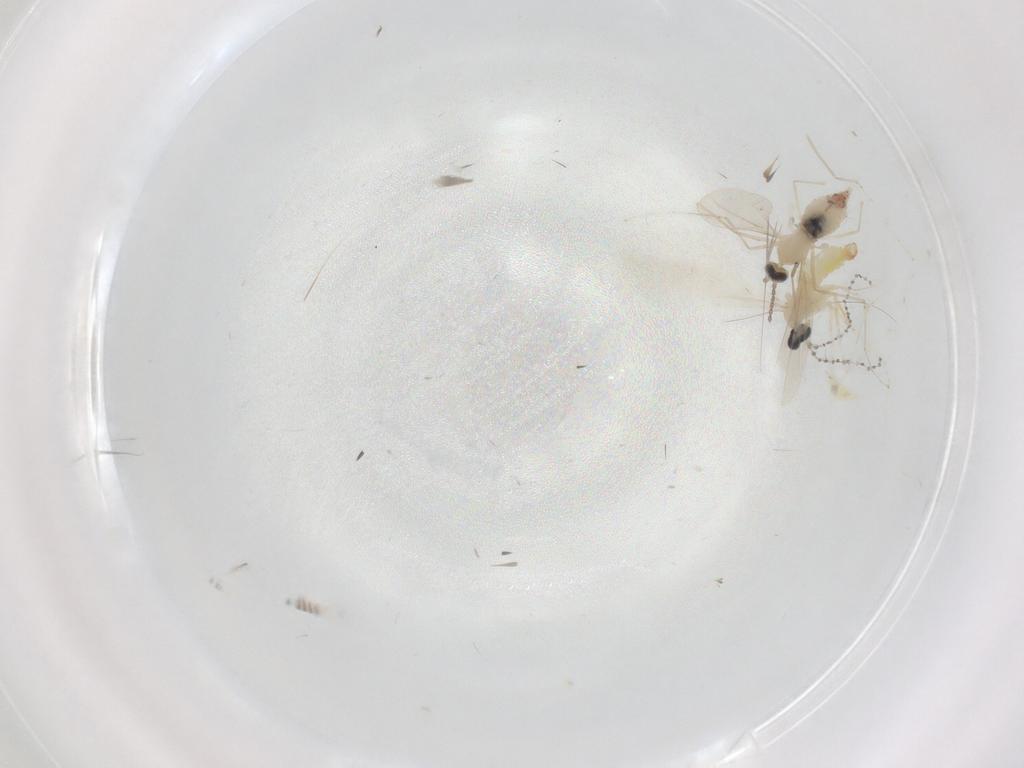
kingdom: Animalia
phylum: Arthropoda
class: Insecta
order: Diptera
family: Cecidomyiidae
